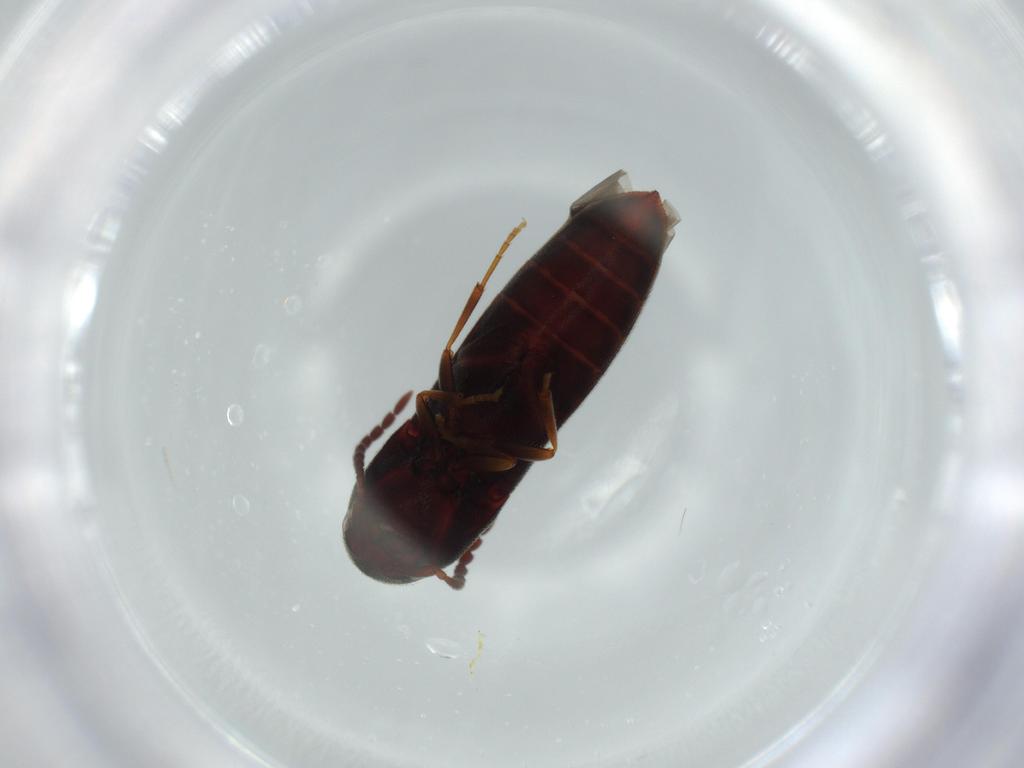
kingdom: Animalia
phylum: Arthropoda
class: Insecta
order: Coleoptera
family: Eucnemidae
